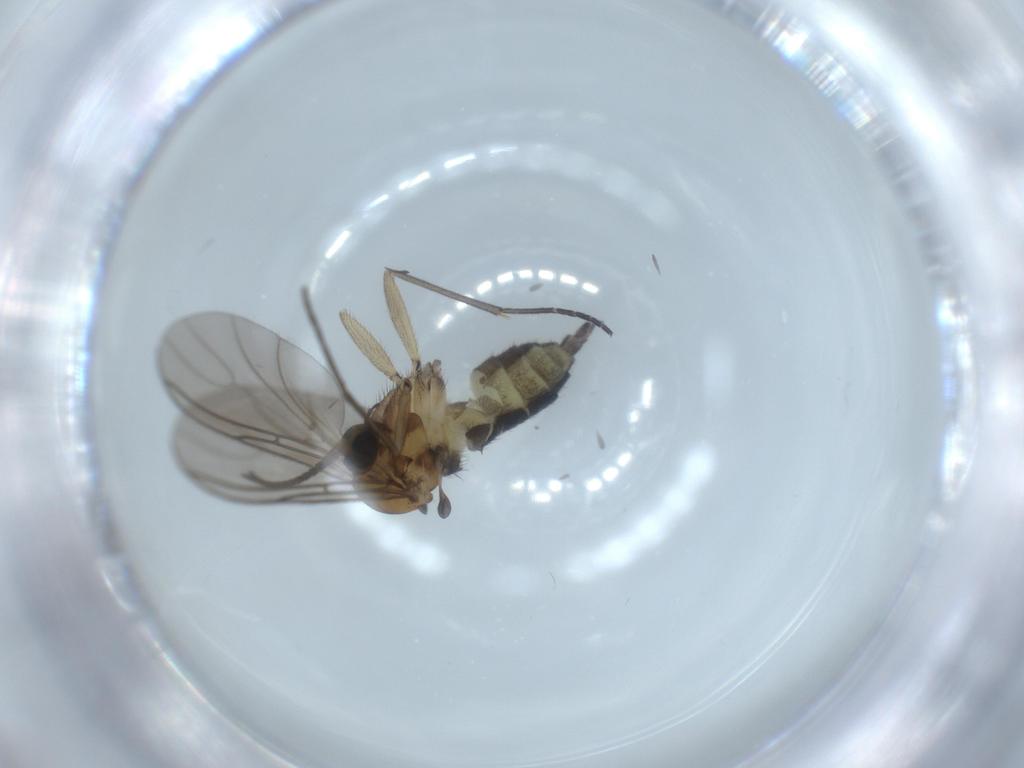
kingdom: Animalia
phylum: Arthropoda
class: Insecta
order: Diptera
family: Sciaridae
